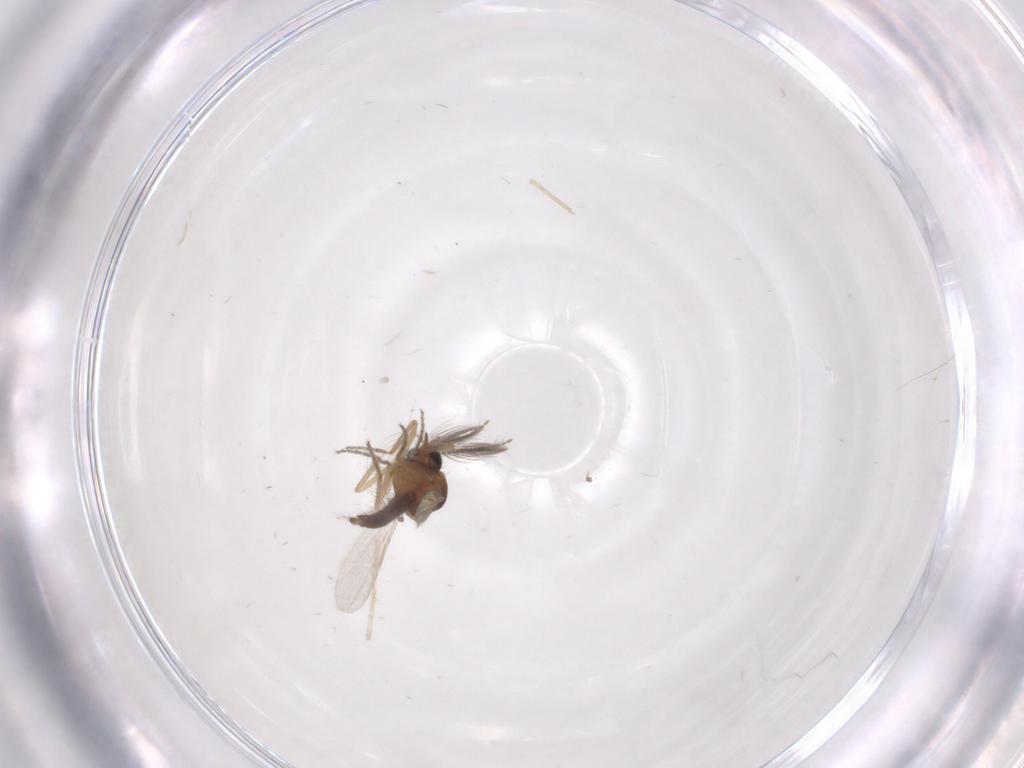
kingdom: Animalia
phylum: Arthropoda
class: Insecta
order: Diptera
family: Ceratopogonidae
